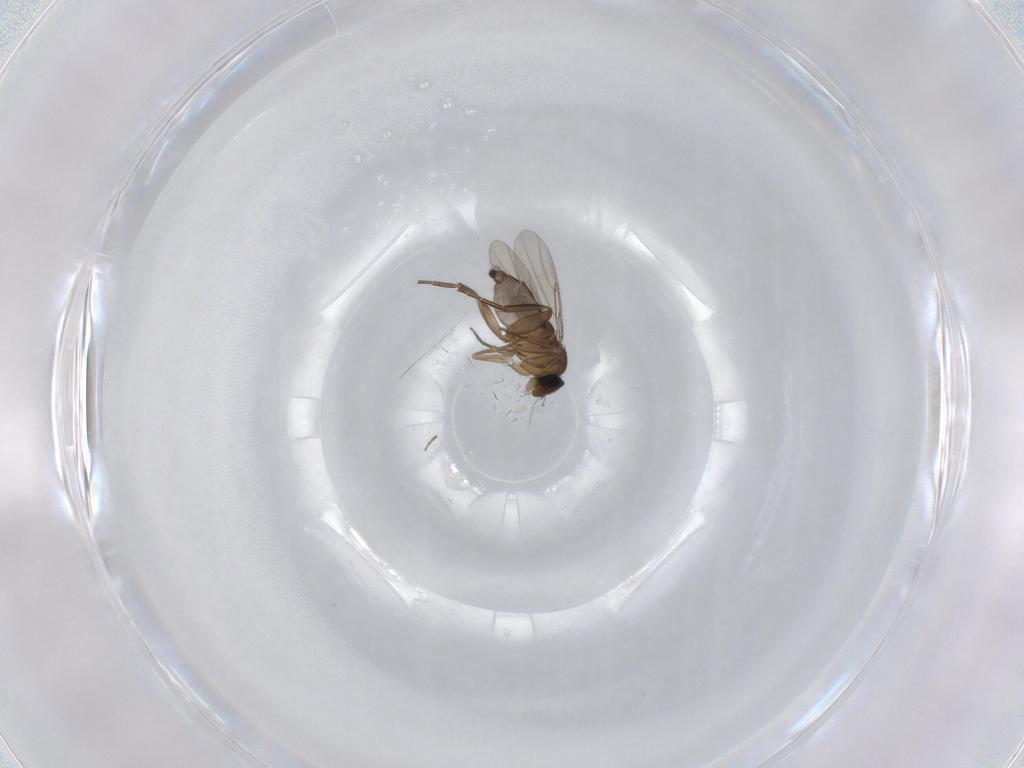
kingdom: Animalia
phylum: Arthropoda
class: Insecta
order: Diptera
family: Phoridae
